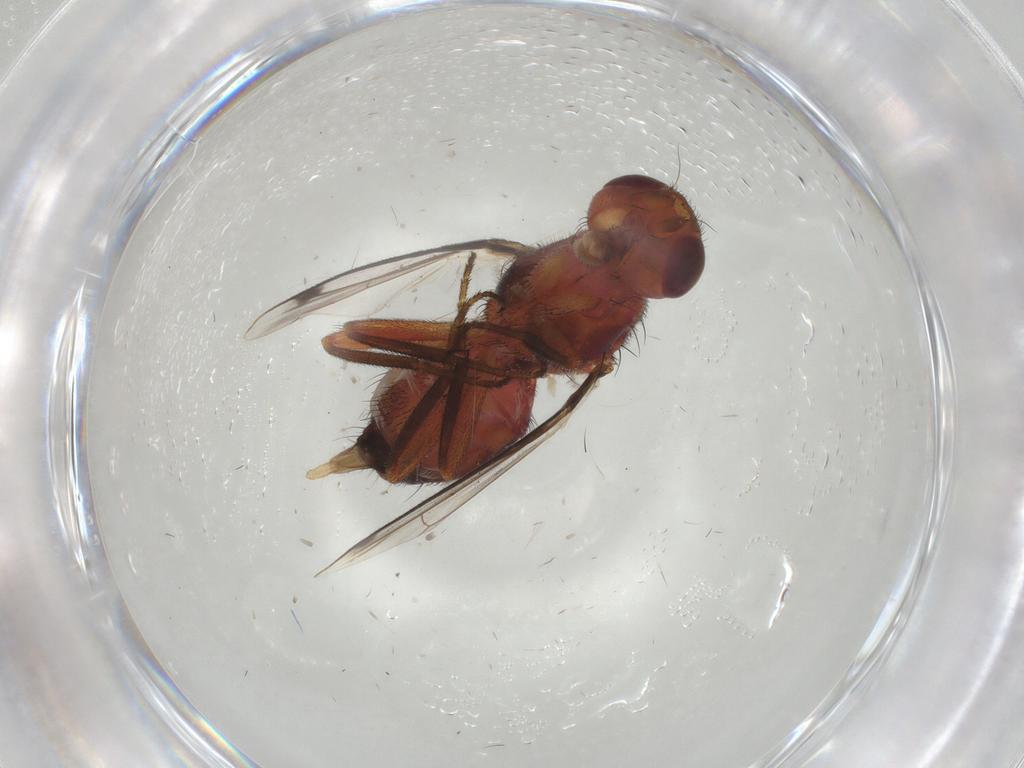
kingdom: Animalia
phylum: Arthropoda
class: Insecta
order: Diptera
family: Richardiidae
